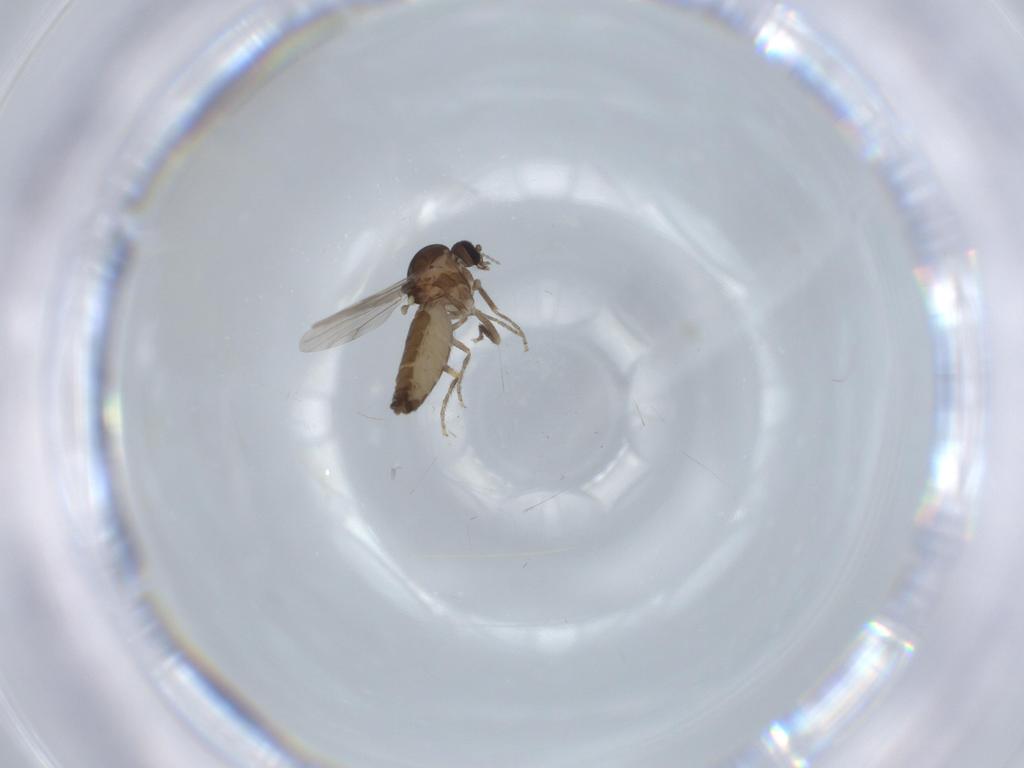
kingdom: Animalia
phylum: Arthropoda
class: Insecta
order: Diptera
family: Ceratopogonidae
